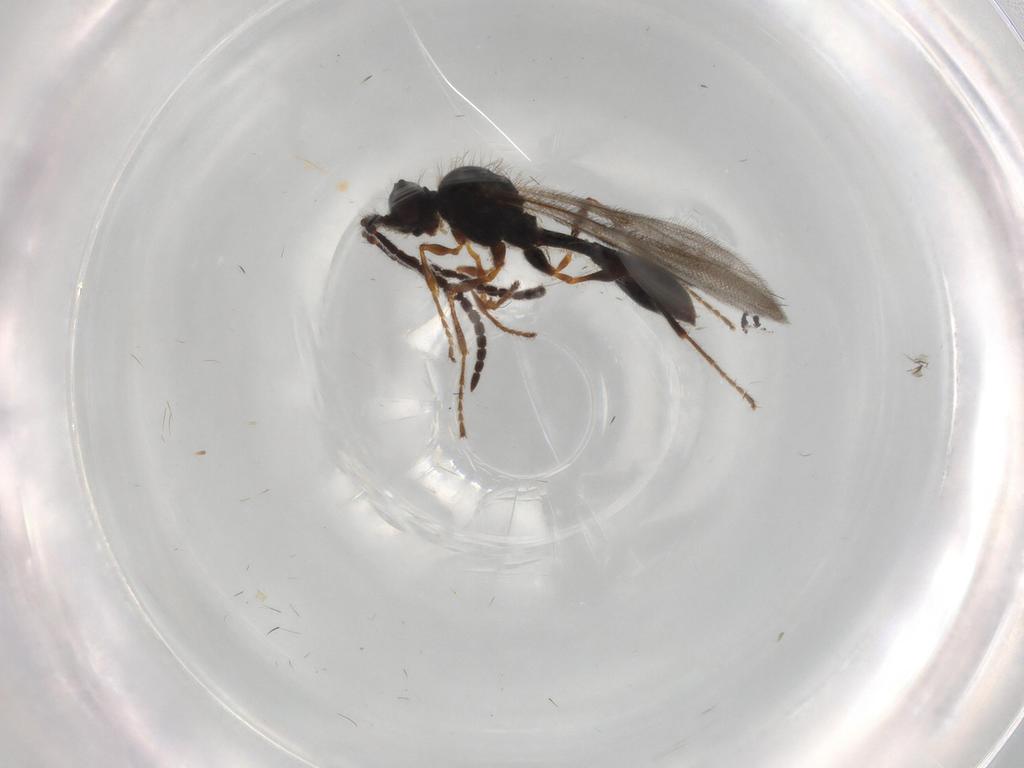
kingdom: Animalia
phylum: Arthropoda
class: Insecta
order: Hymenoptera
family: Diapriidae
